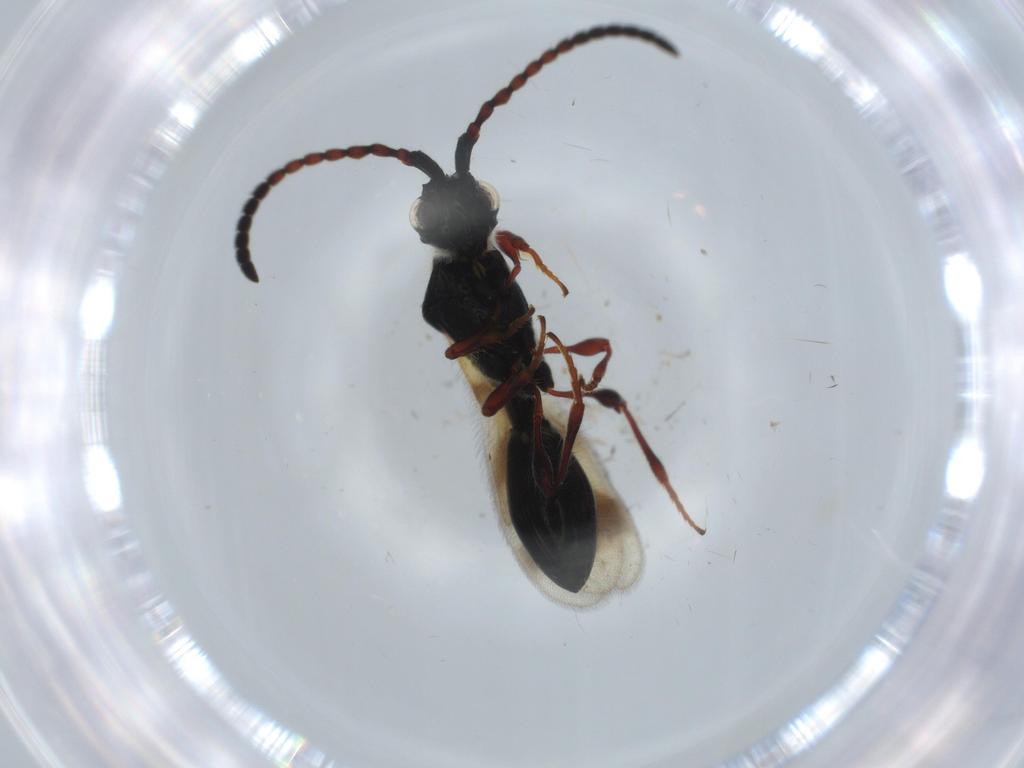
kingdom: Animalia
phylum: Arthropoda
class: Insecta
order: Hymenoptera
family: Diapriidae
